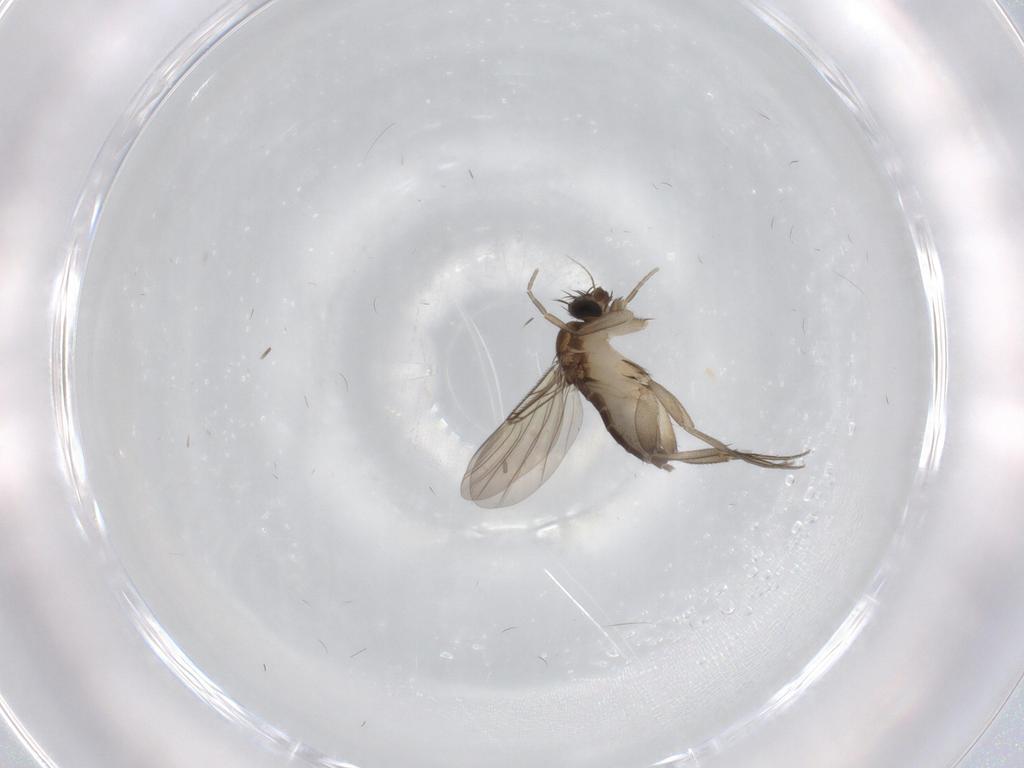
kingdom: Animalia
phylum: Arthropoda
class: Insecta
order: Diptera
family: Phoridae
